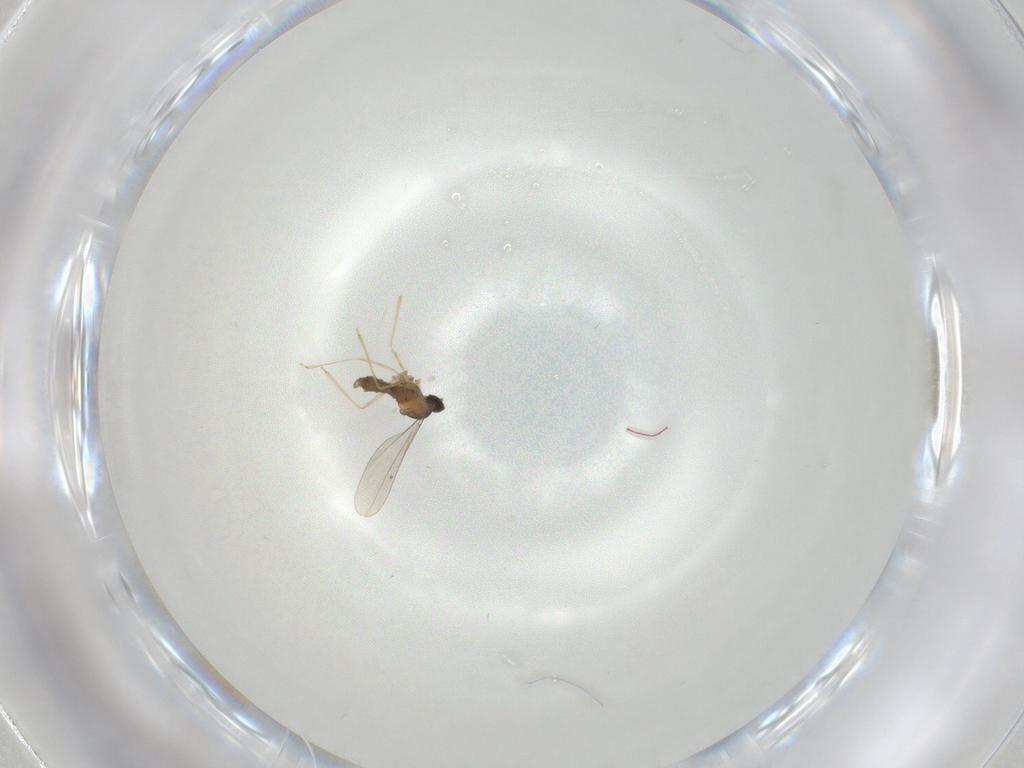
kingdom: Animalia
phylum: Arthropoda
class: Insecta
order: Diptera
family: Cecidomyiidae
